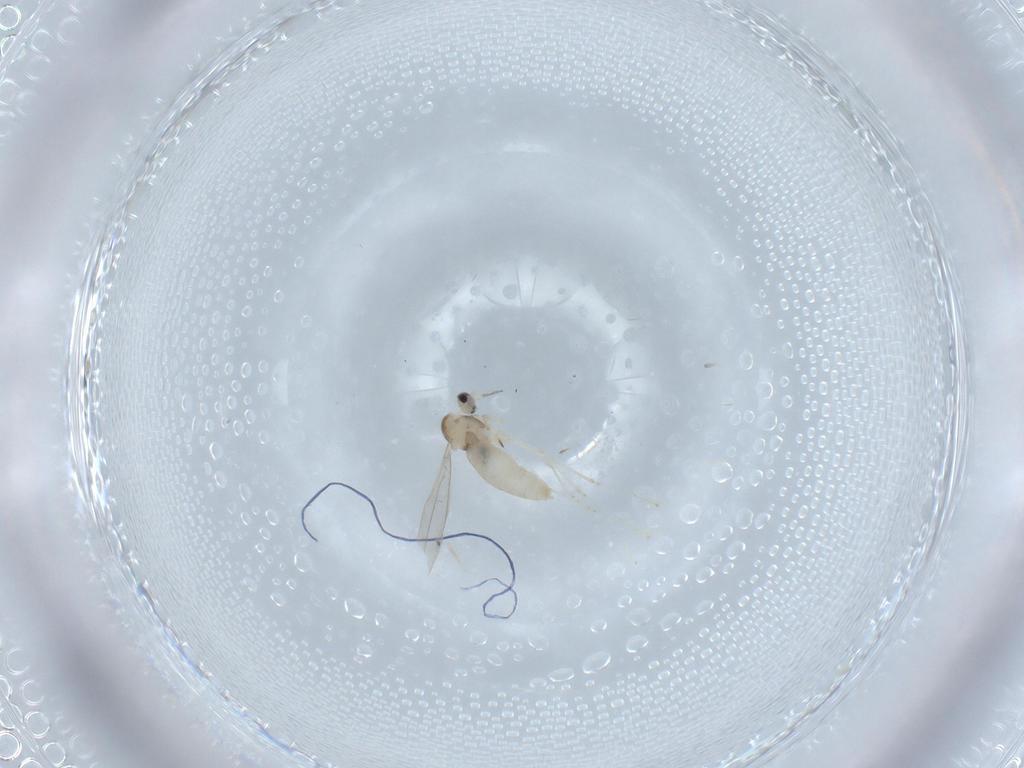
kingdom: Animalia
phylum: Arthropoda
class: Insecta
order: Diptera
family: Cecidomyiidae
